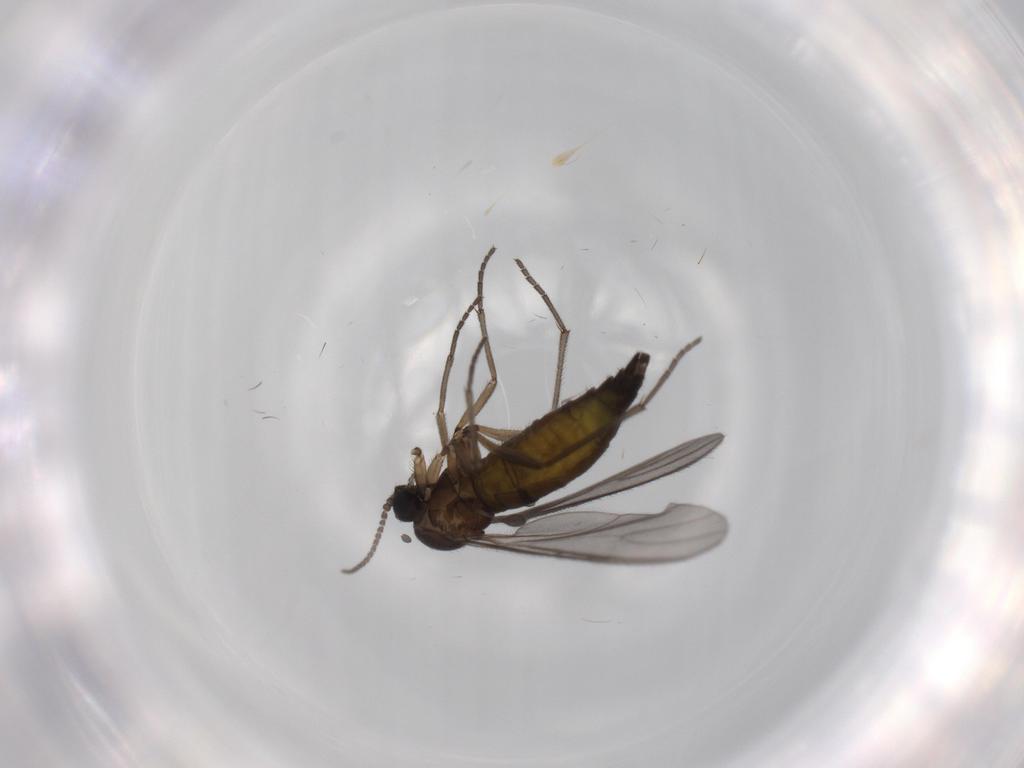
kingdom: Animalia
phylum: Arthropoda
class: Insecta
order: Diptera
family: Sciaridae
